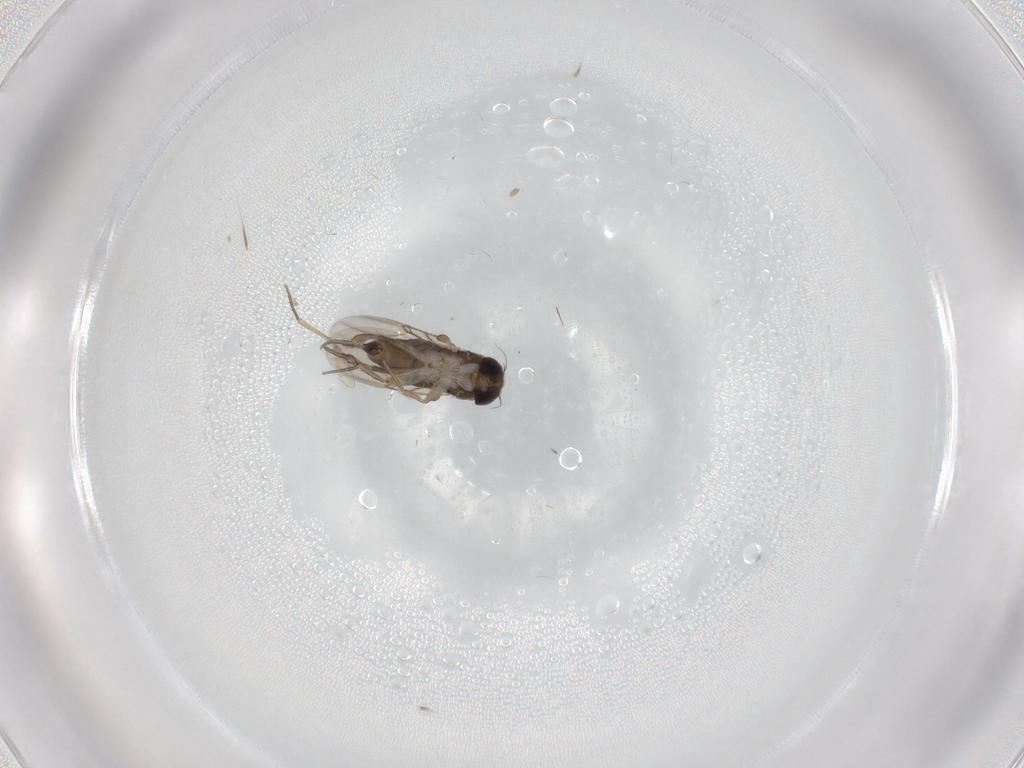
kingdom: Animalia
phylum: Arthropoda
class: Insecta
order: Diptera
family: Phoridae
